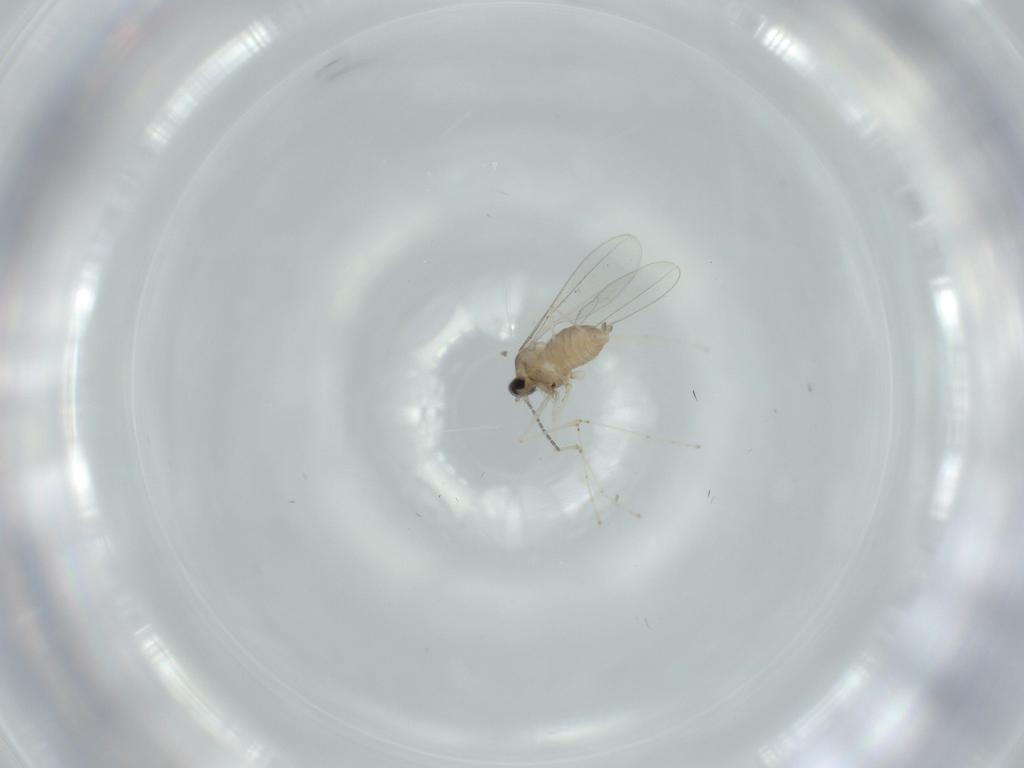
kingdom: Animalia
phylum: Arthropoda
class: Insecta
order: Diptera
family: Cecidomyiidae
